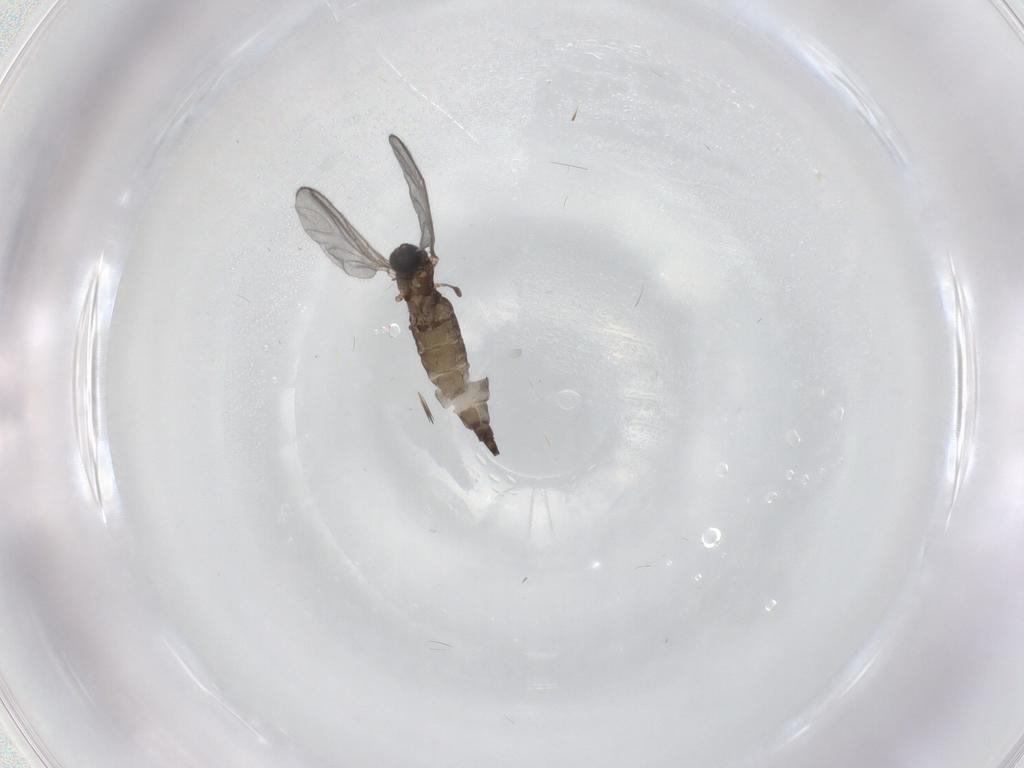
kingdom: Animalia
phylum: Arthropoda
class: Insecta
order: Diptera
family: Sciaridae
